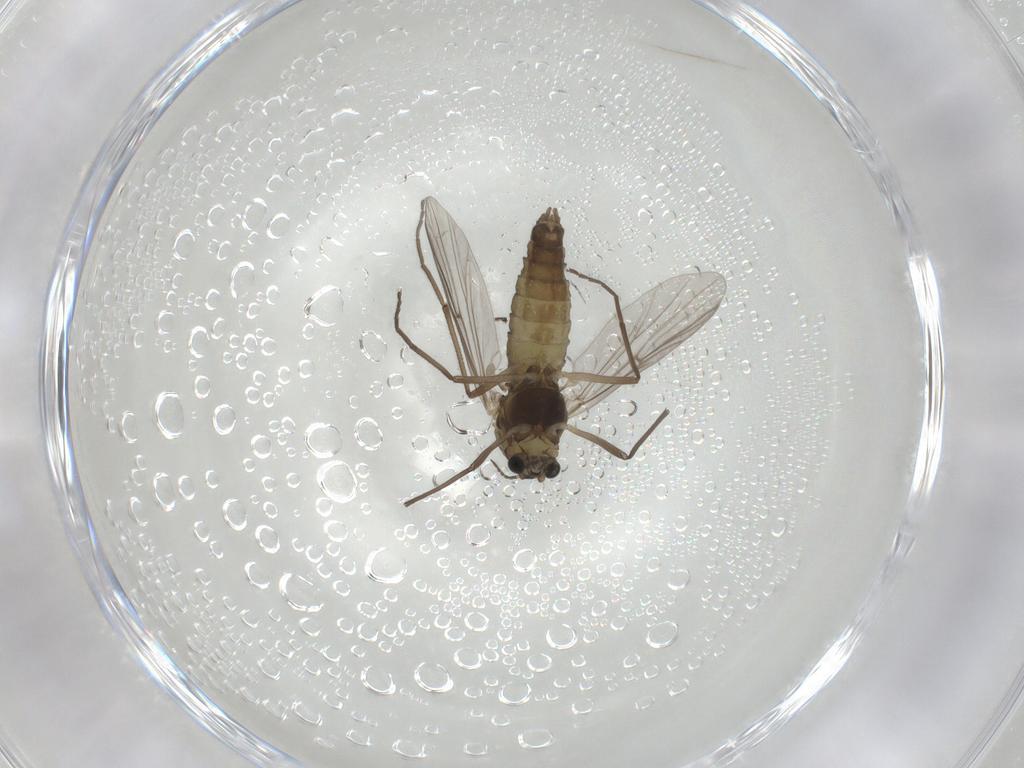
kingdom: Animalia
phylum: Arthropoda
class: Insecta
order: Diptera
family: Chironomidae
